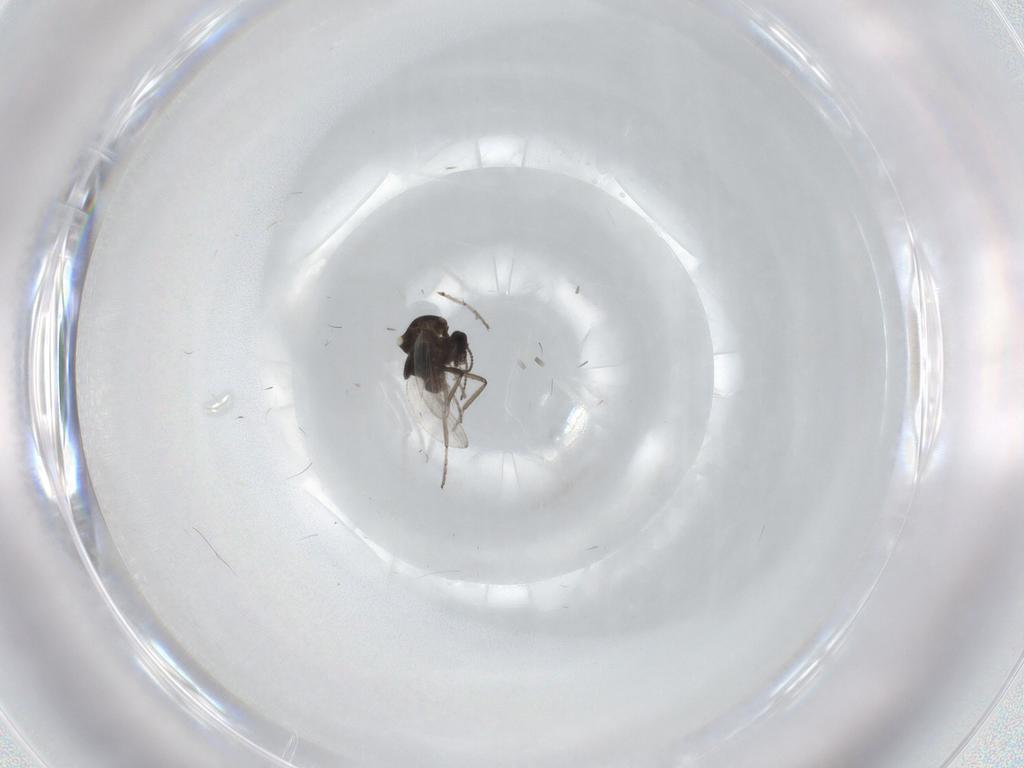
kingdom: Animalia
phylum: Arthropoda
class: Insecta
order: Diptera
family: Ceratopogonidae
